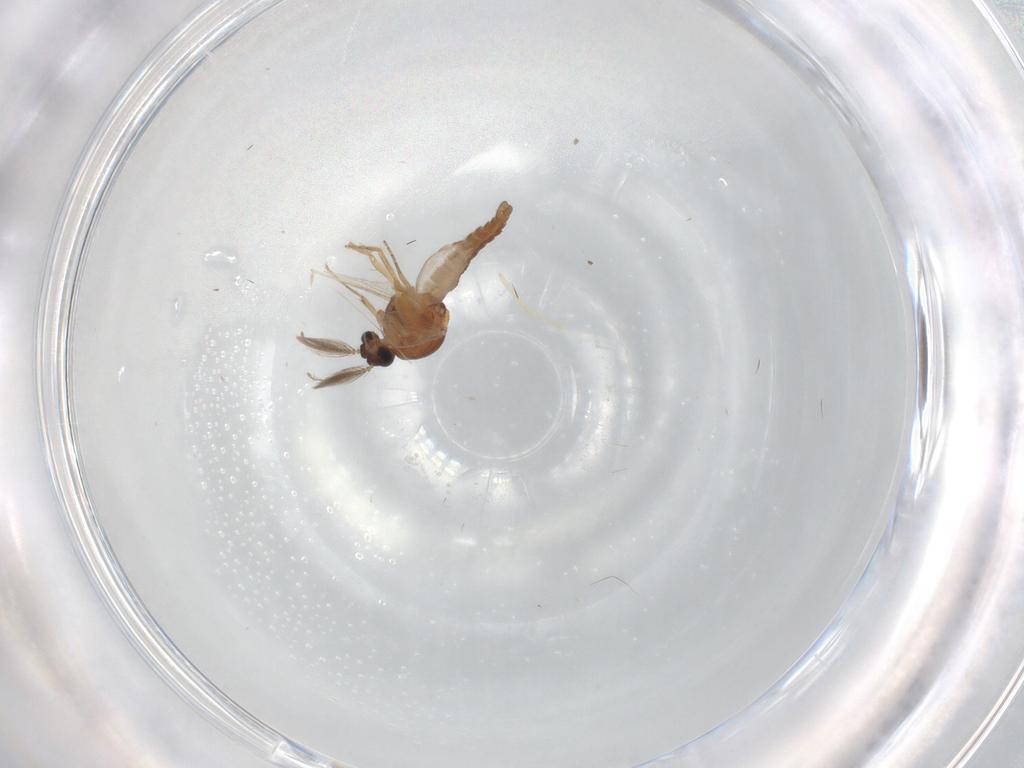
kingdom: Animalia
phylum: Arthropoda
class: Insecta
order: Diptera
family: Ceratopogonidae
